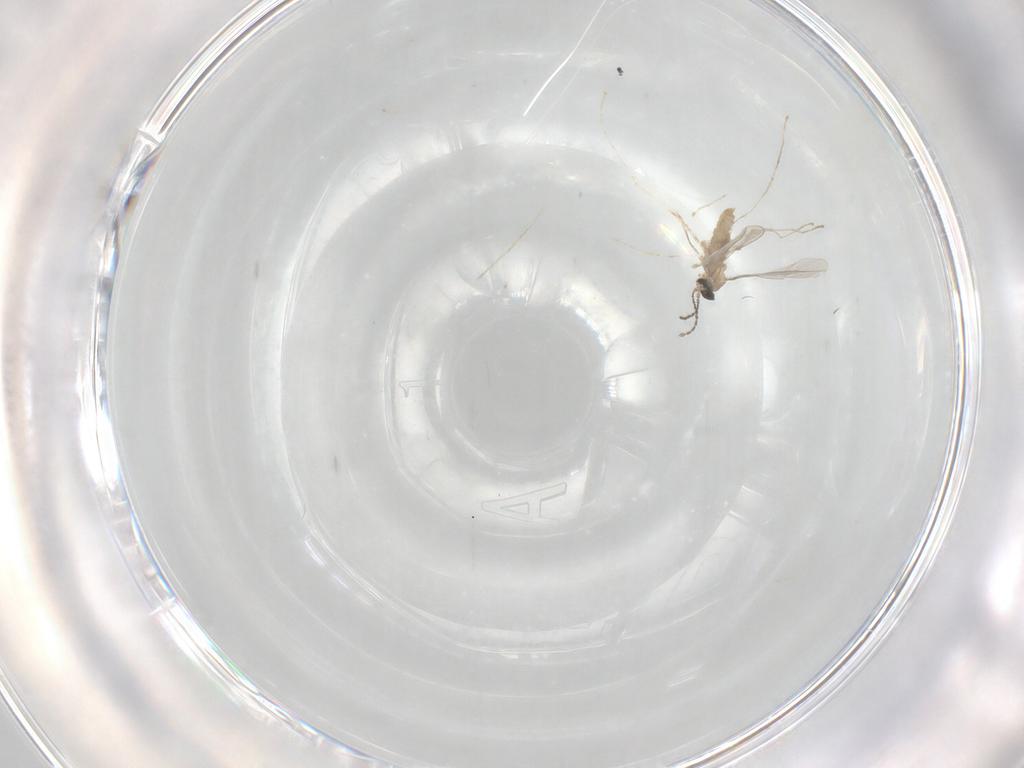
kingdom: Animalia
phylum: Arthropoda
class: Insecta
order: Diptera
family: Cecidomyiidae
